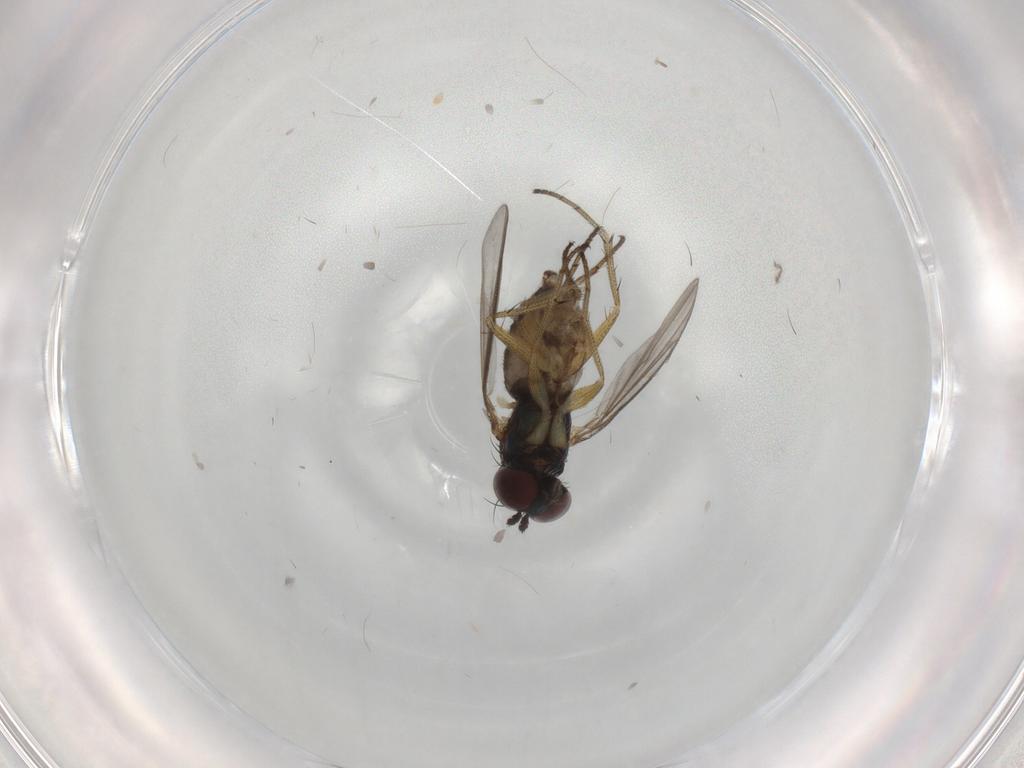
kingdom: Animalia
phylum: Arthropoda
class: Insecta
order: Diptera
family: Dolichopodidae
